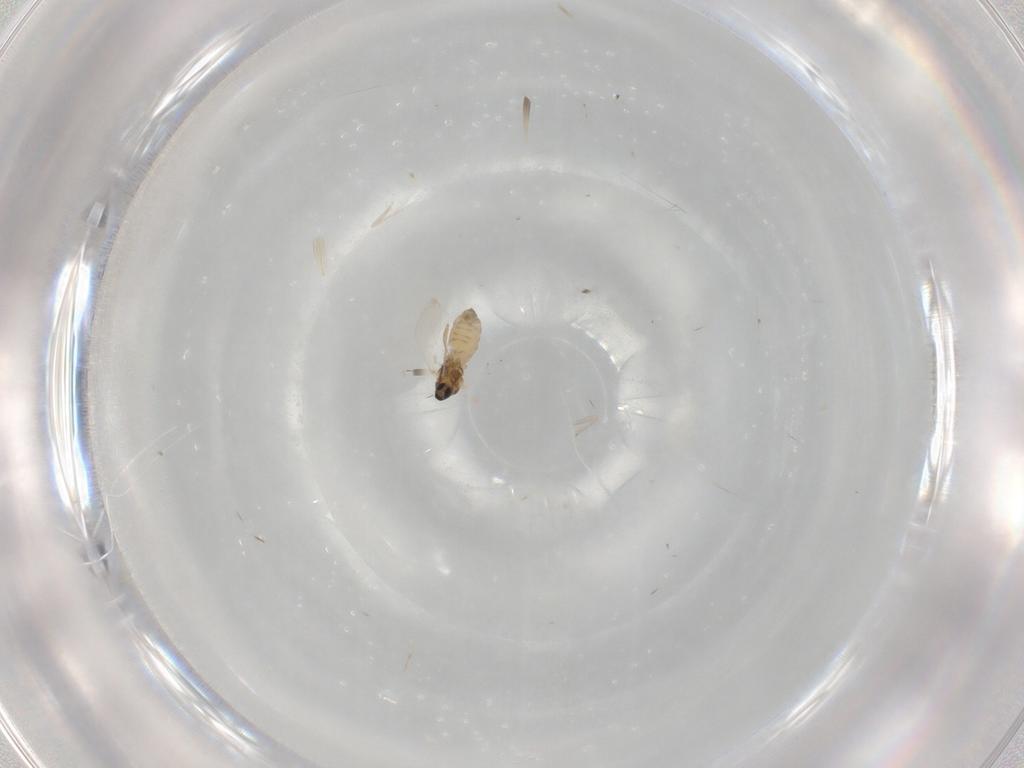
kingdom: Animalia
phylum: Arthropoda
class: Insecta
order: Diptera
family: Cecidomyiidae
